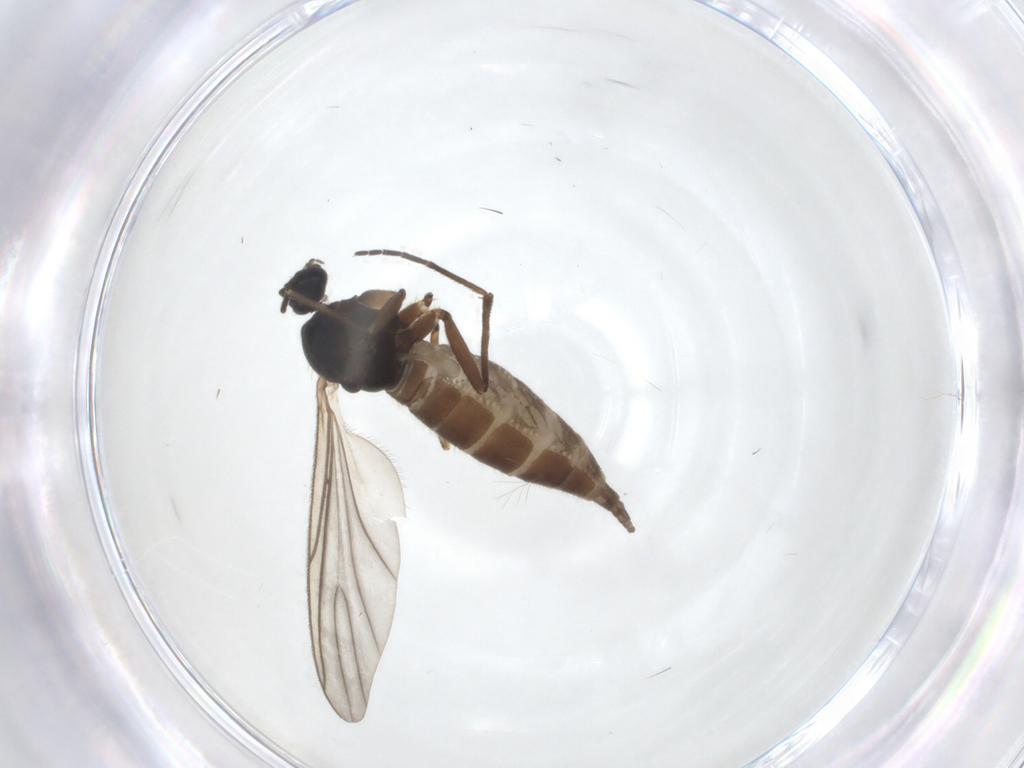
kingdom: Animalia
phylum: Arthropoda
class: Insecta
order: Diptera
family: Sciaridae
